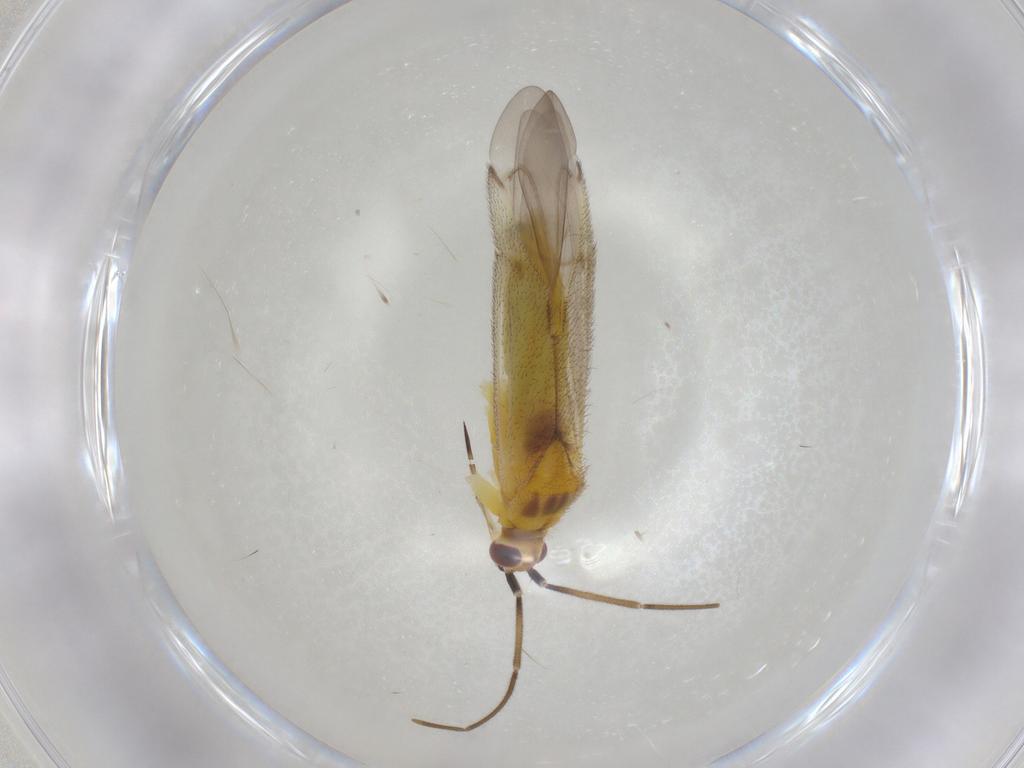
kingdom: Animalia
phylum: Arthropoda
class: Insecta
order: Hemiptera
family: Miridae
